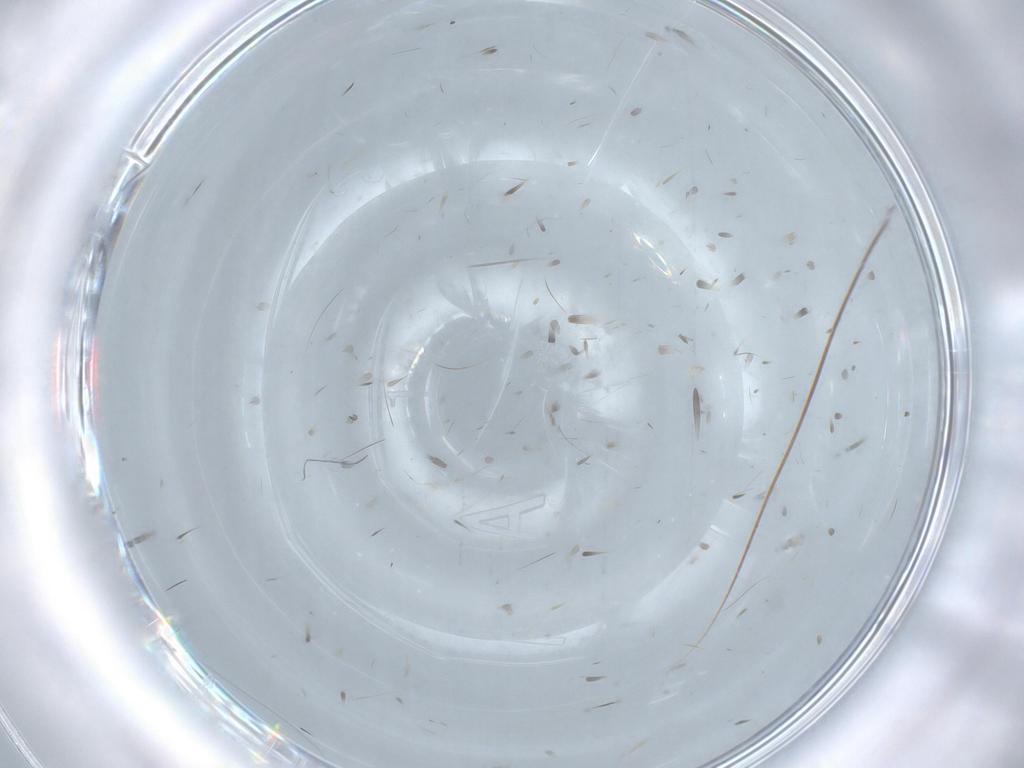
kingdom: Animalia
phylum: Arthropoda
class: Insecta
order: Diptera
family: Psychodidae
